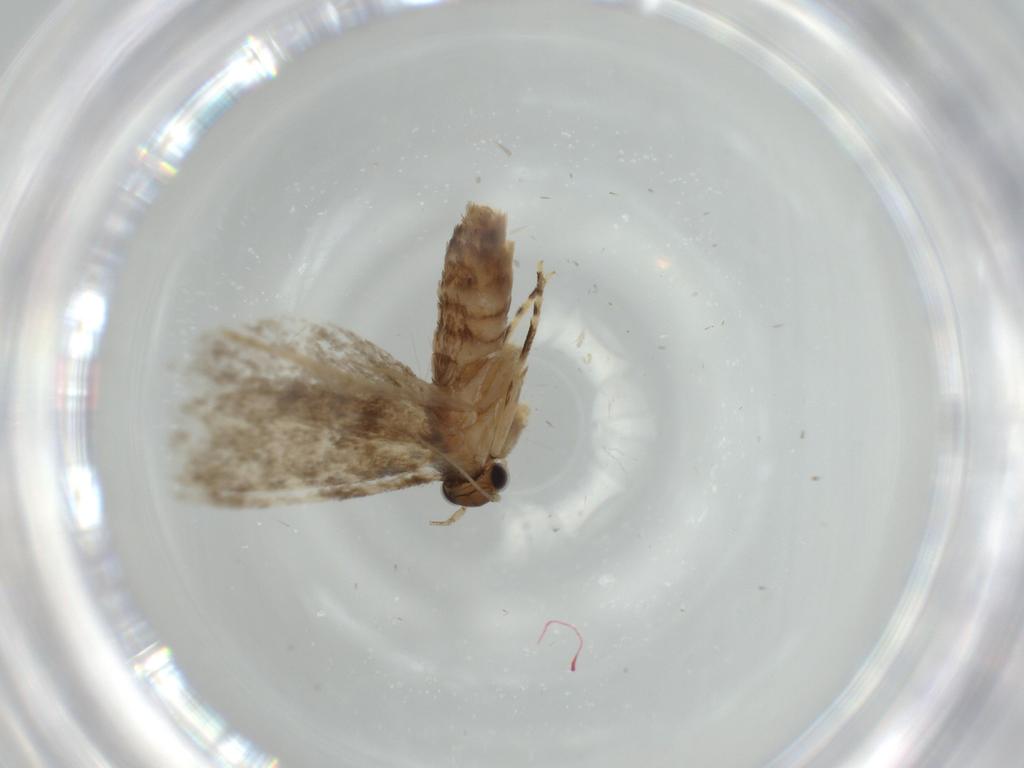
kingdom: Animalia
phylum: Arthropoda
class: Insecta
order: Lepidoptera
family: Tineidae
